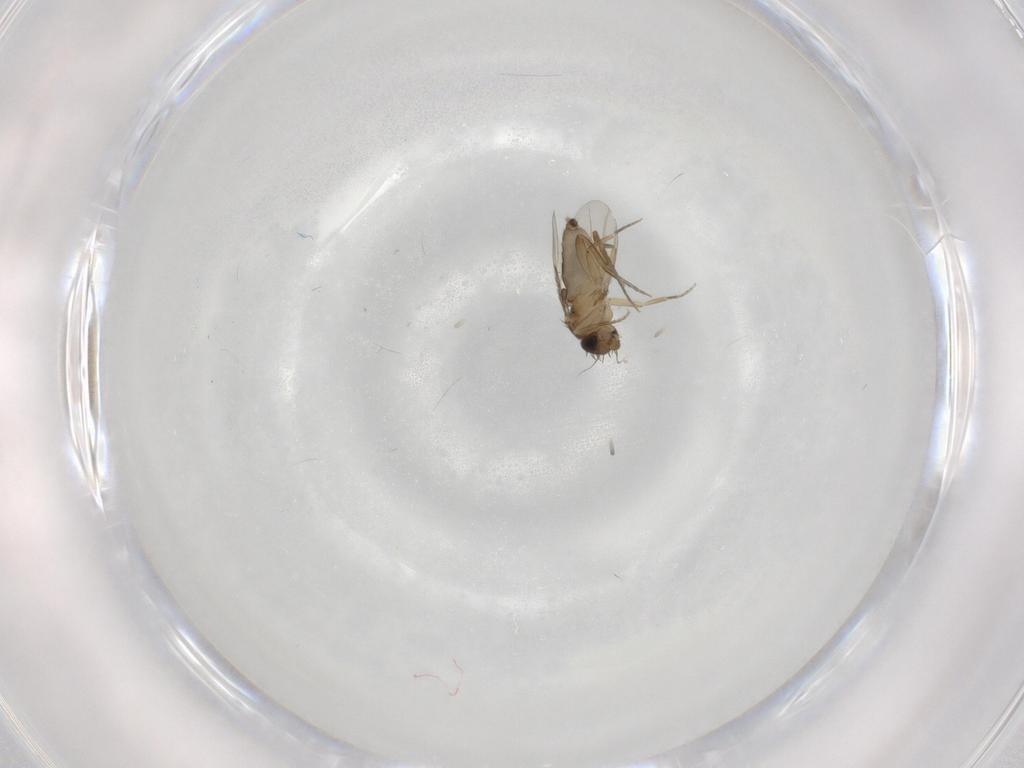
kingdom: Animalia
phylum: Arthropoda
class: Insecta
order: Diptera
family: Phoridae
